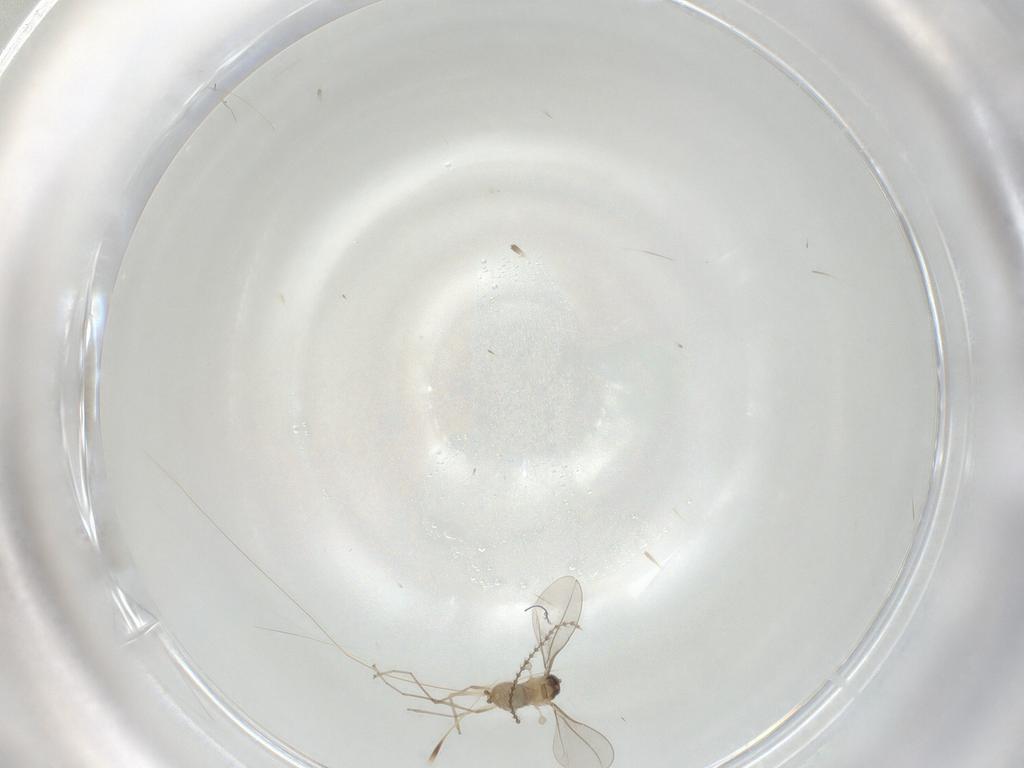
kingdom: Animalia
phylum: Arthropoda
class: Insecta
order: Diptera
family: Cecidomyiidae
